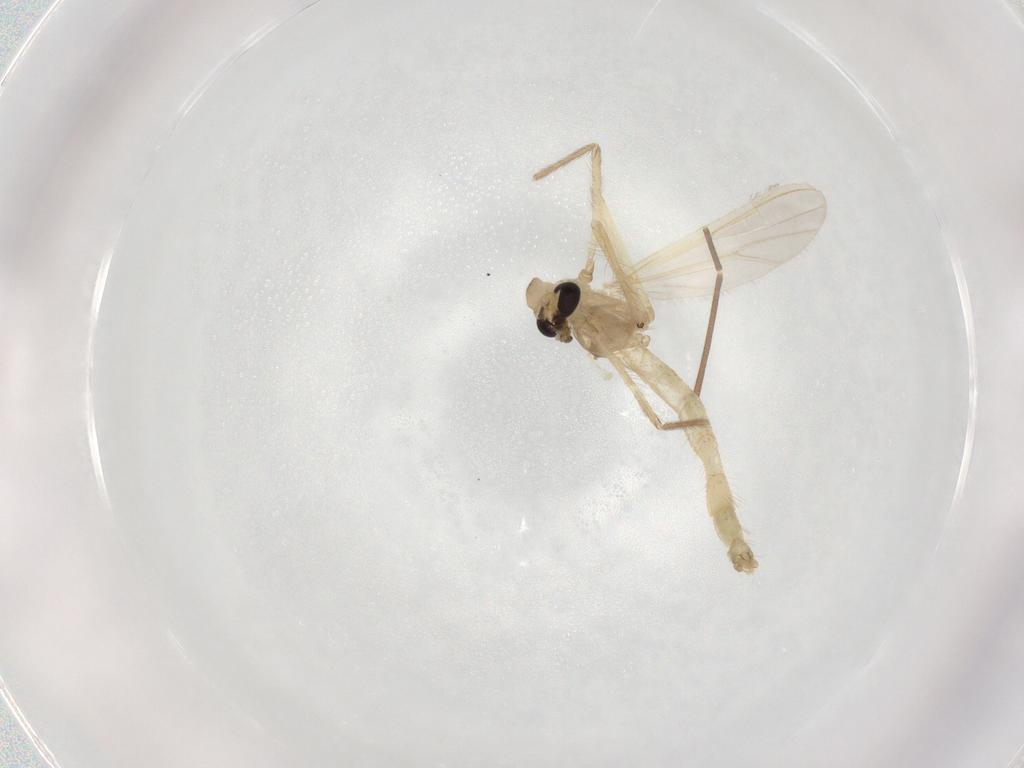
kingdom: Animalia
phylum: Arthropoda
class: Insecta
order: Diptera
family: Chironomidae
